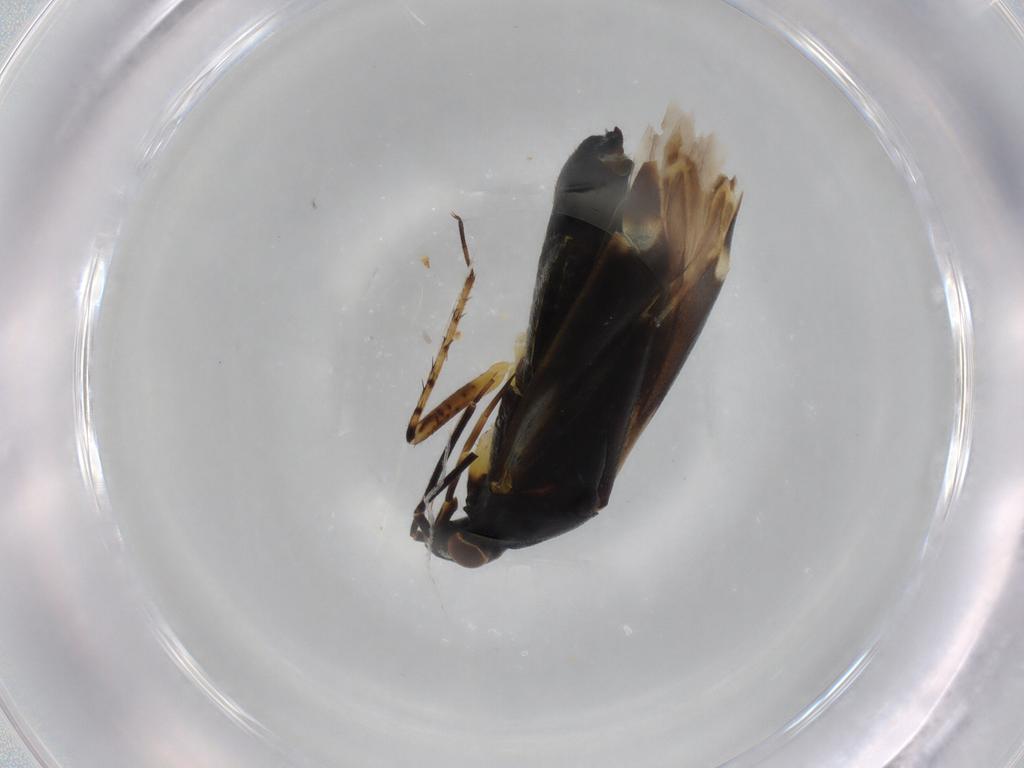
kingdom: Animalia
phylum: Arthropoda
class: Insecta
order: Hemiptera
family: Miridae
